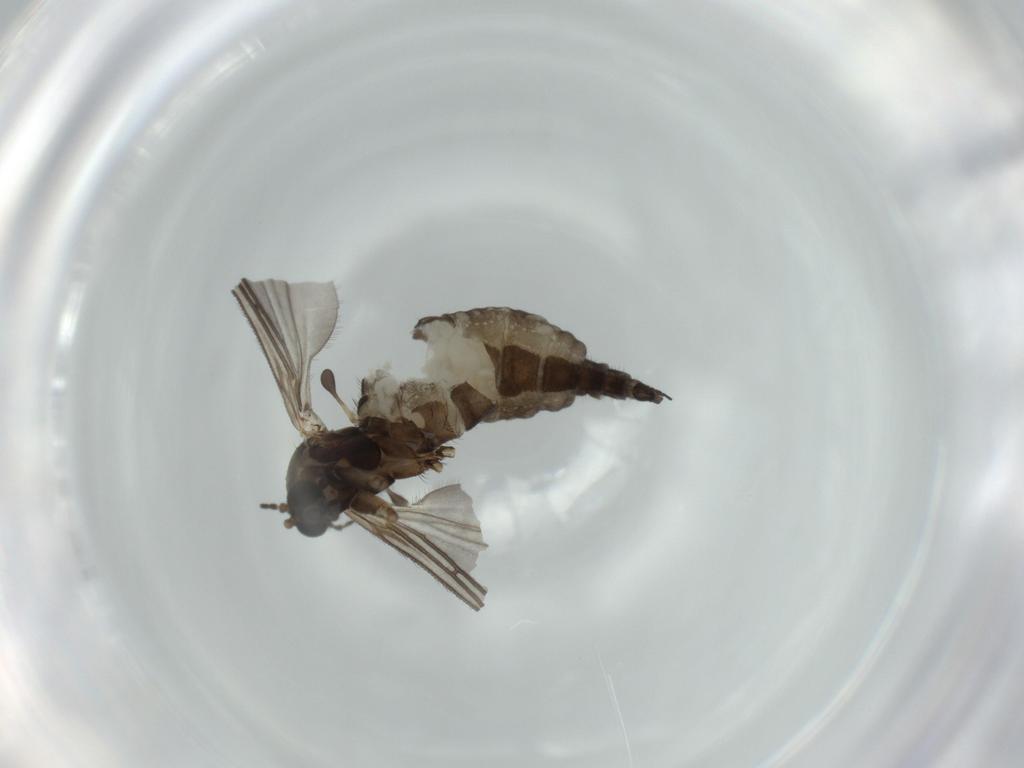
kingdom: Animalia
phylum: Arthropoda
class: Insecta
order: Diptera
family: Sciaridae
